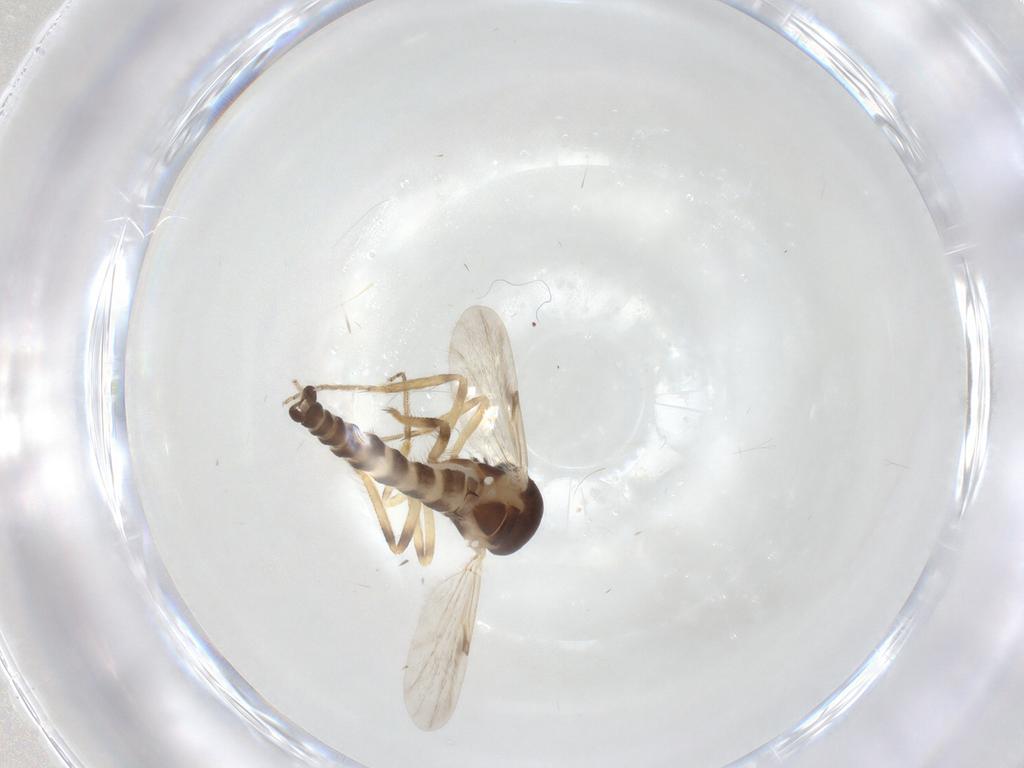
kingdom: Animalia
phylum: Arthropoda
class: Insecta
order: Diptera
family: Ceratopogonidae
